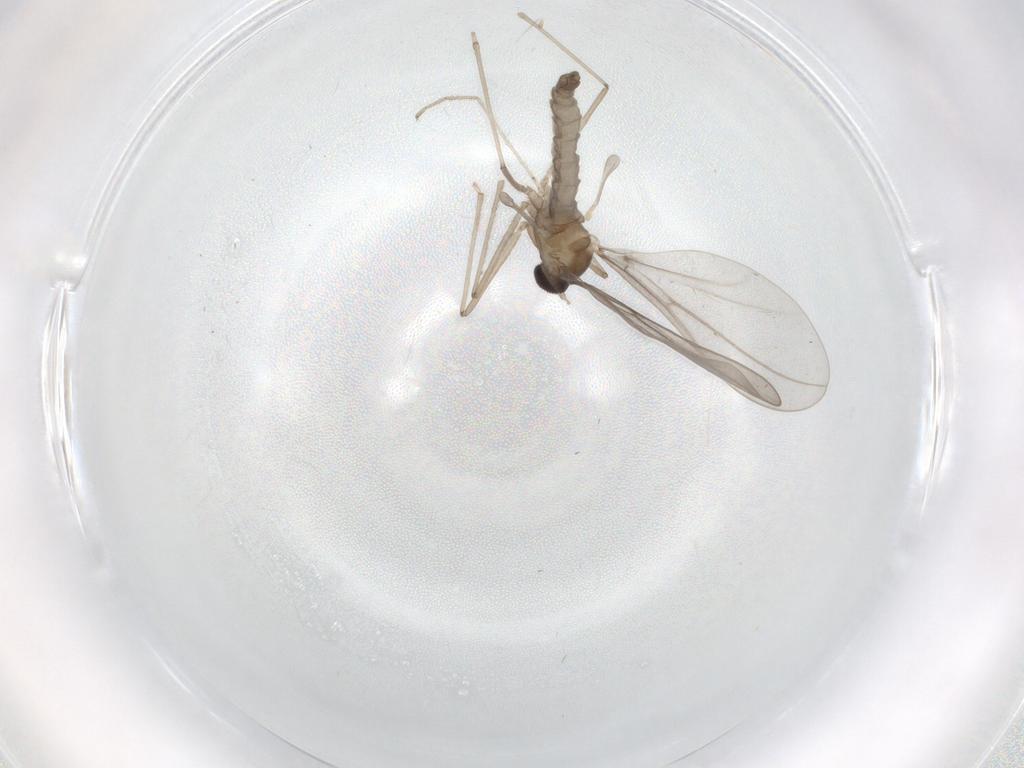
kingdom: Animalia
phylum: Arthropoda
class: Insecta
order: Diptera
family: Cecidomyiidae
